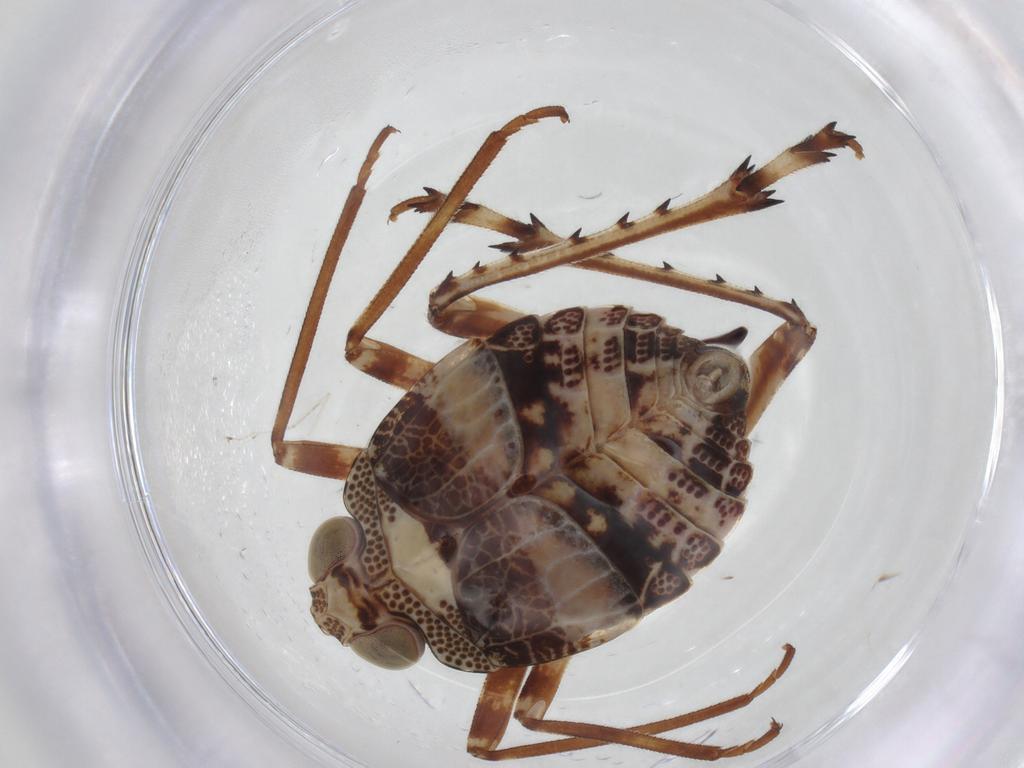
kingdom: Animalia
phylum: Arthropoda
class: Insecta
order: Hemiptera
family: Dictyopharidae
